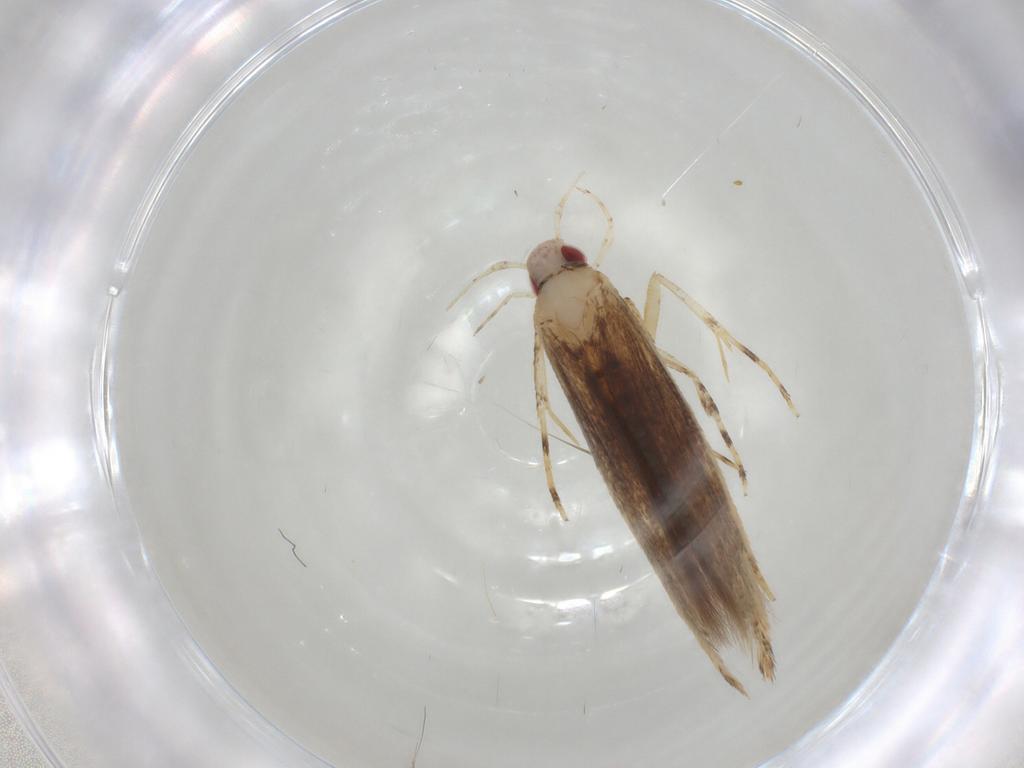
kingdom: Animalia
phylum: Arthropoda
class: Insecta
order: Lepidoptera
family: Cosmopterigidae
